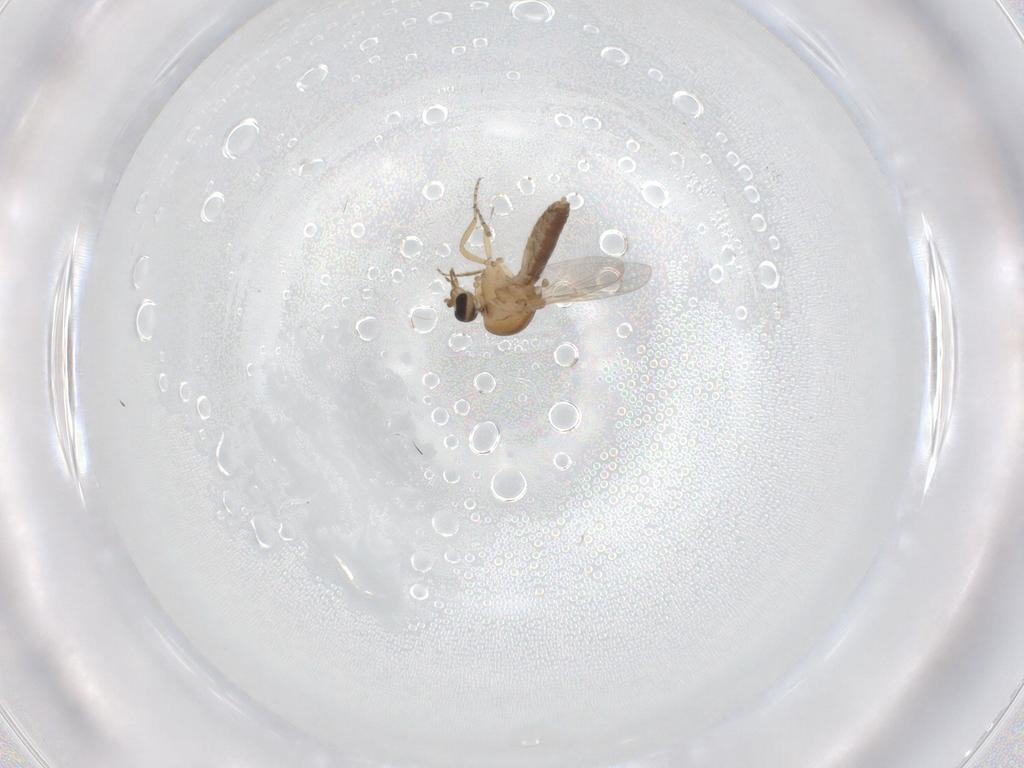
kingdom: Animalia
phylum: Arthropoda
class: Insecta
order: Diptera
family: Ceratopogonidae
